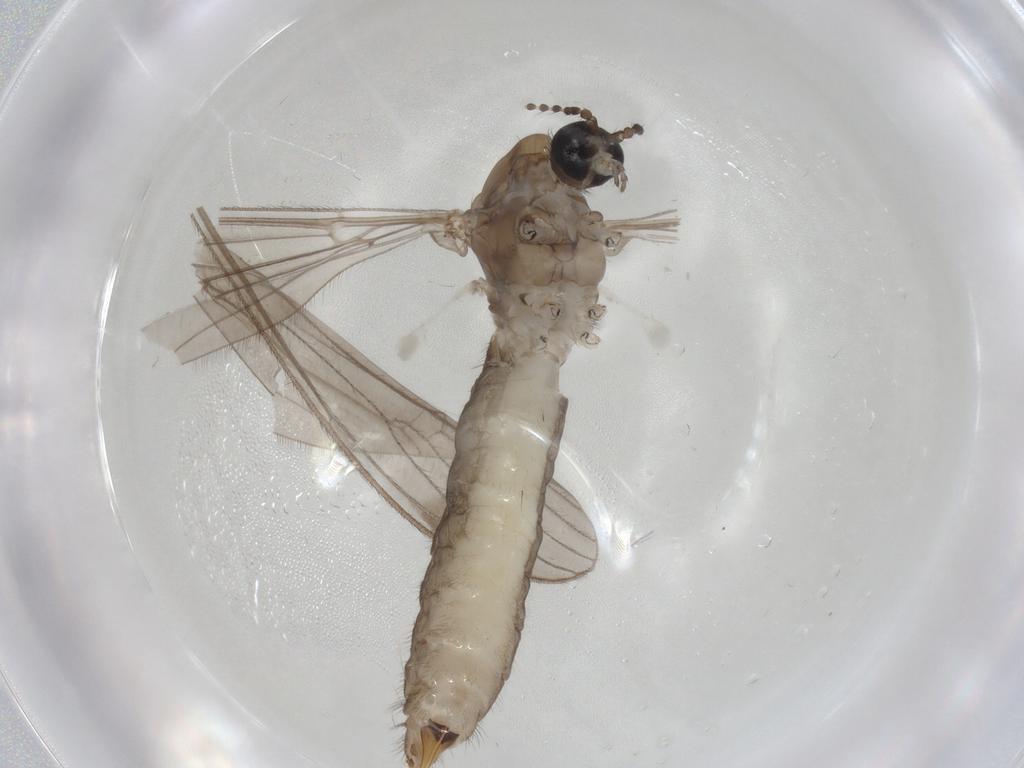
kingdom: Animalia
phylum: Arthropoda
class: Insecta
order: Diptera
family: Limoniidae
